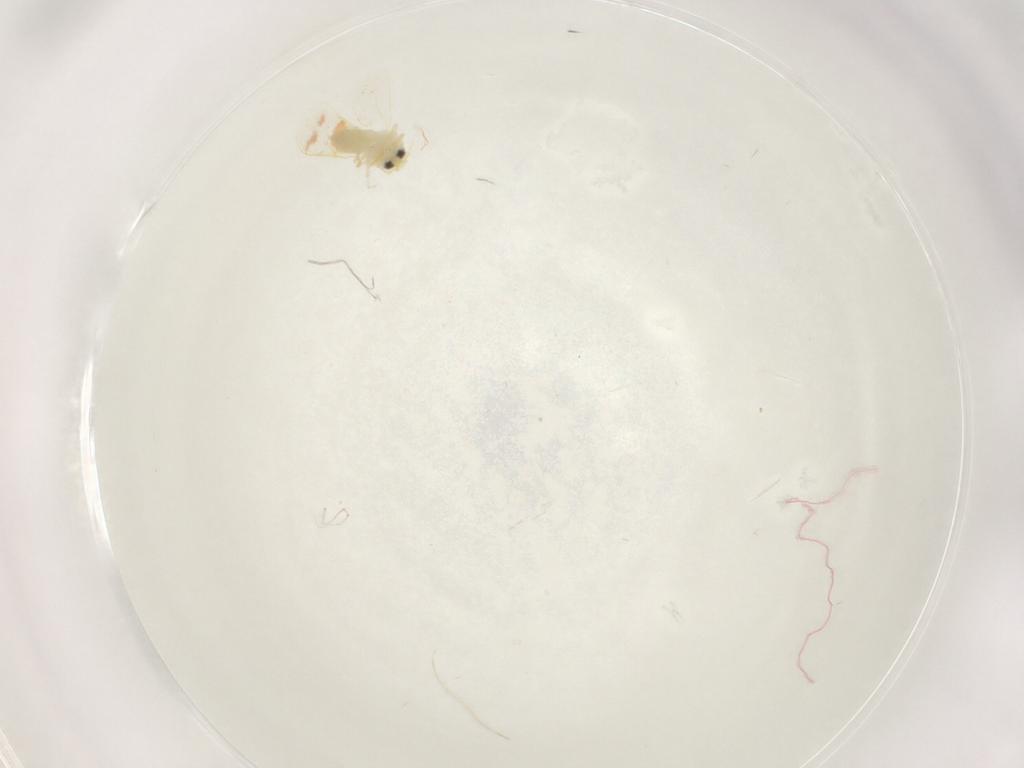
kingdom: Animalia
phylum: Arthropoda
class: Insecta
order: Hemiptera
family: Aleyrodidae
